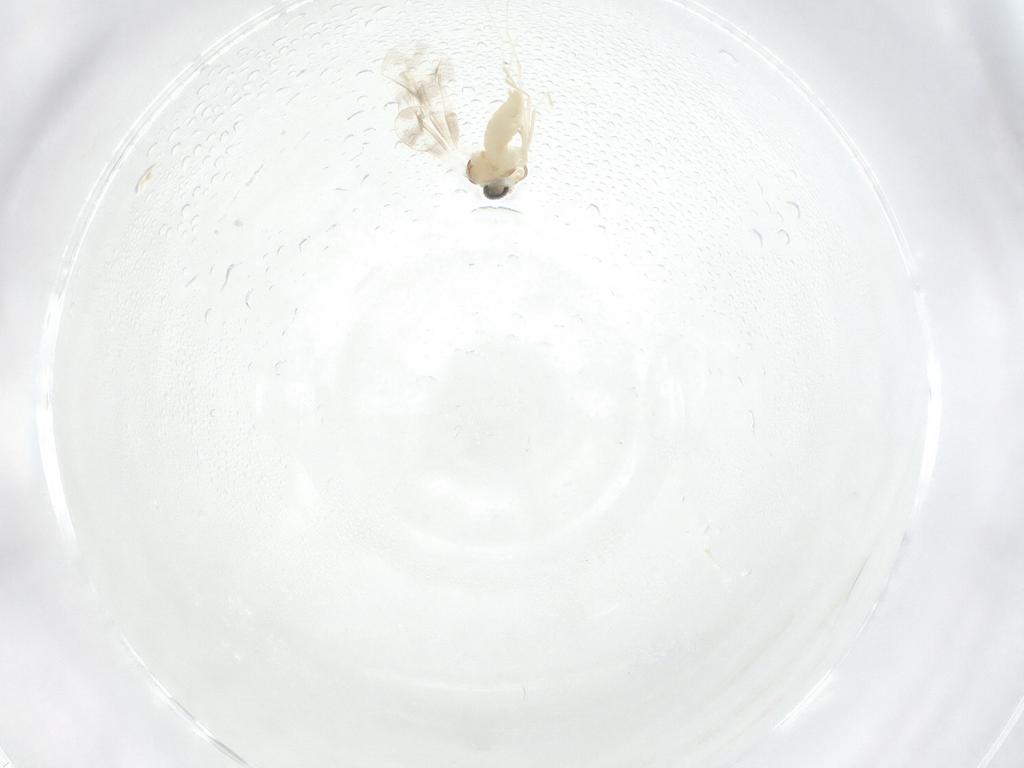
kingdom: Animalia
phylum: Arthropoda
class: Insecta
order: Diptera
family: Cecidomyiidae
